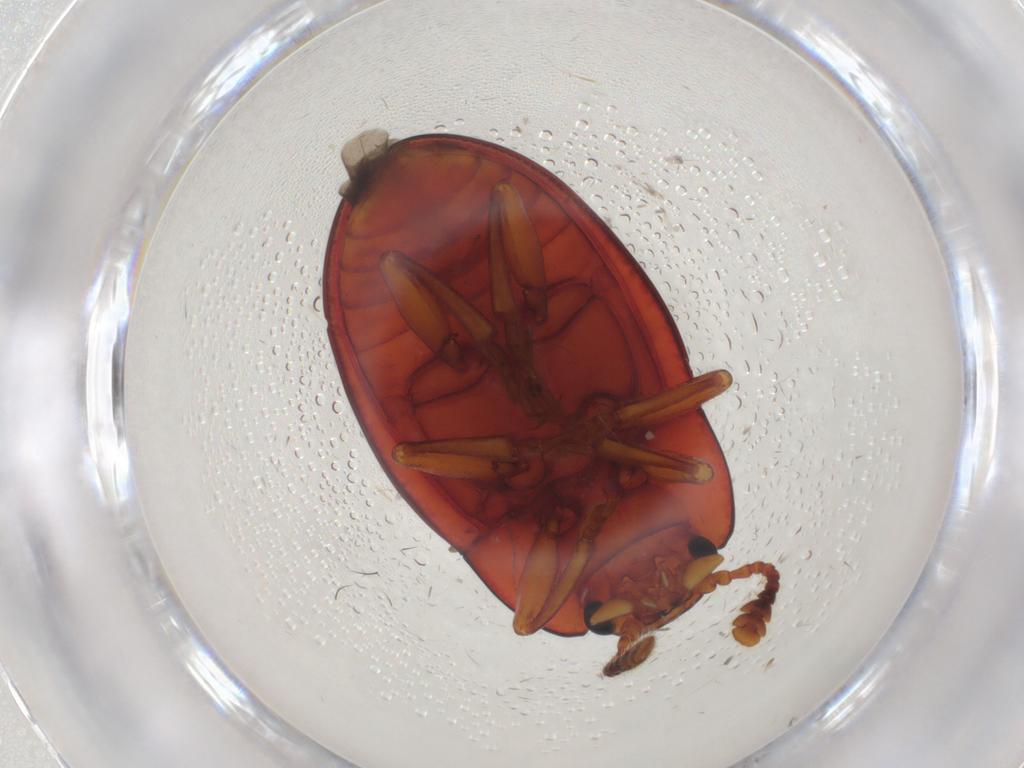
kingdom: Animalia
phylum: Arthropoda
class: Insecta
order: Coleoptera
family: Erotylidae
